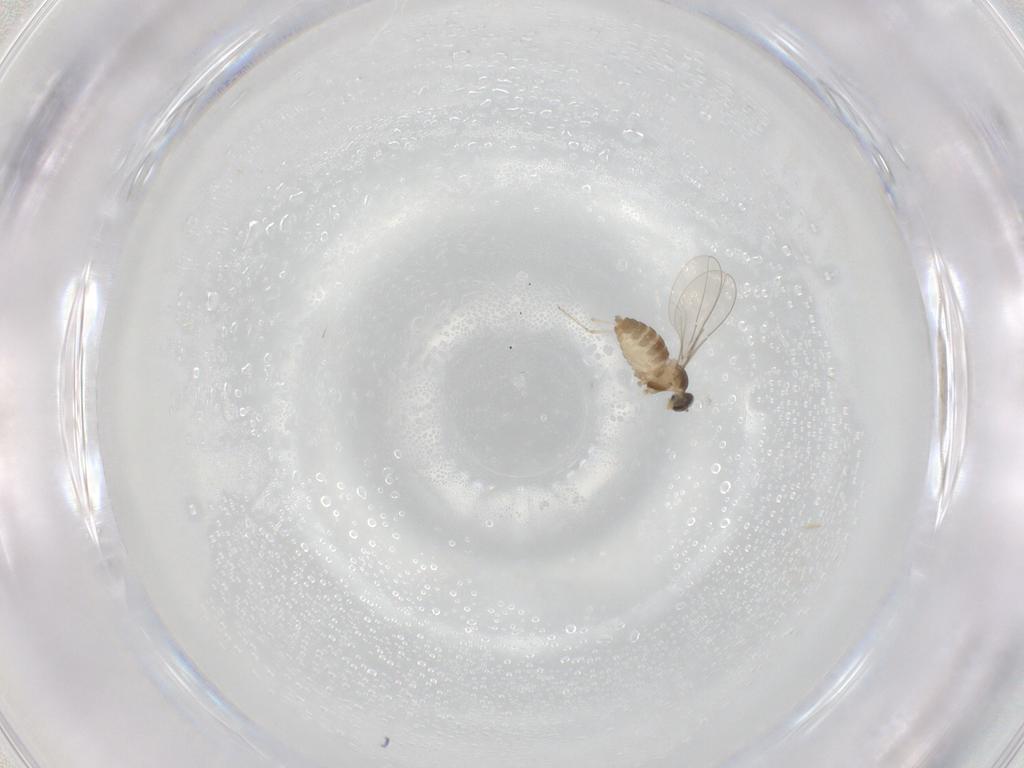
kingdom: Animalia
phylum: Arthropoda
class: Insecta
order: Diptera
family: Cecidomyiidae
